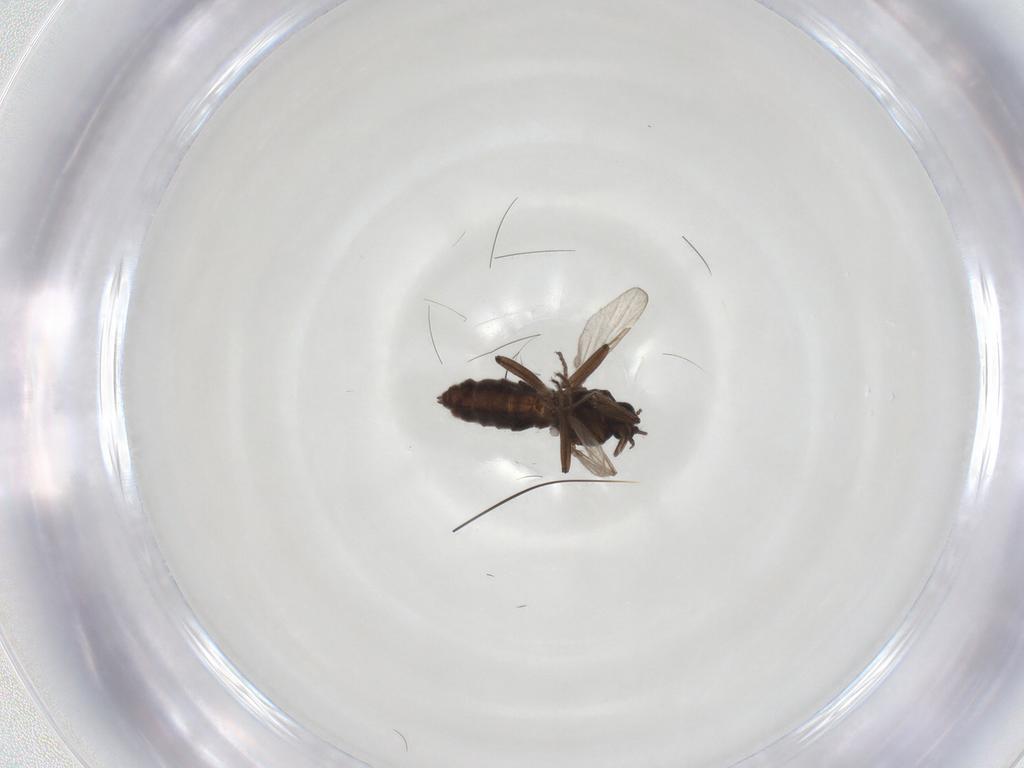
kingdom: Animalia
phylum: Arthropoda
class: Insecta
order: Diptera
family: Ceratopogonidae
